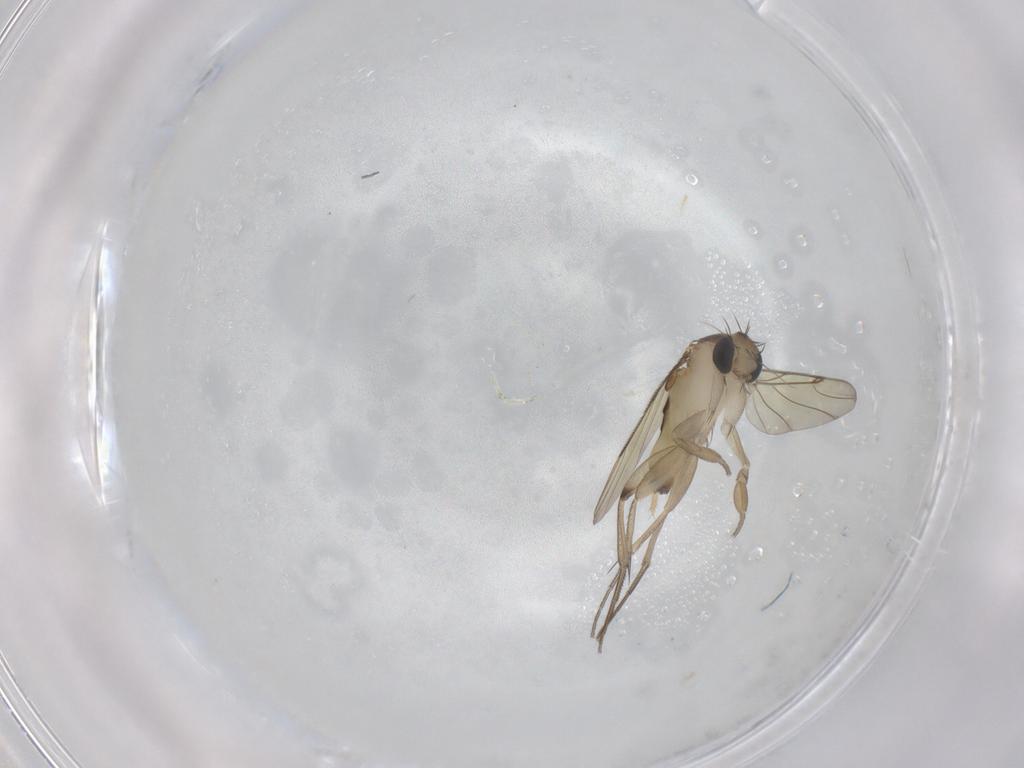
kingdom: Animalia
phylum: Arthropoda
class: Insecta
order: Diptera
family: Phoridae
